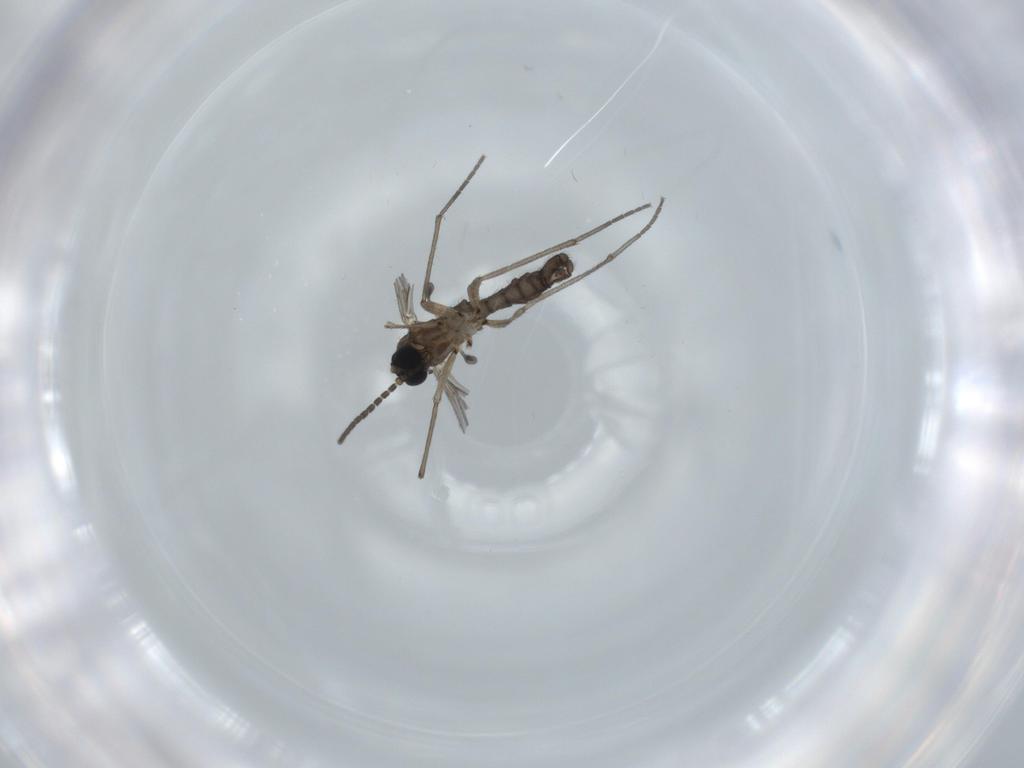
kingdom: Animalia
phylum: Arthropoda
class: Insecta
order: Diptera
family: Sciaridae
